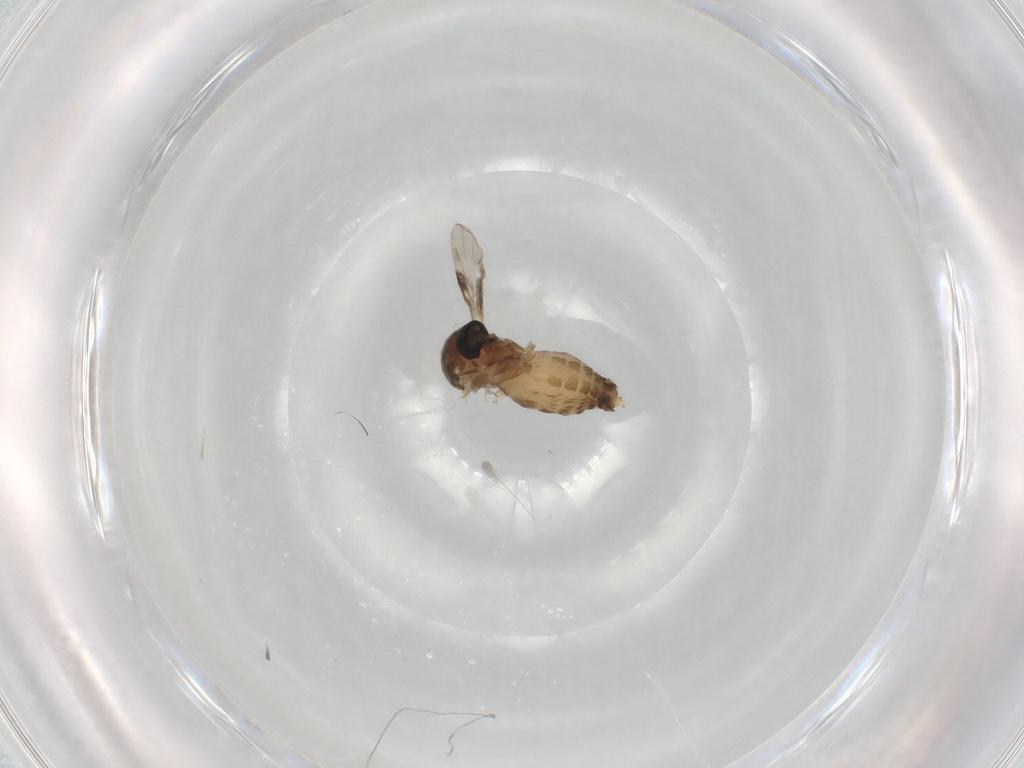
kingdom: Animalia
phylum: Arthropoda
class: Insecta
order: Diptera
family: Ceratopogonidae
